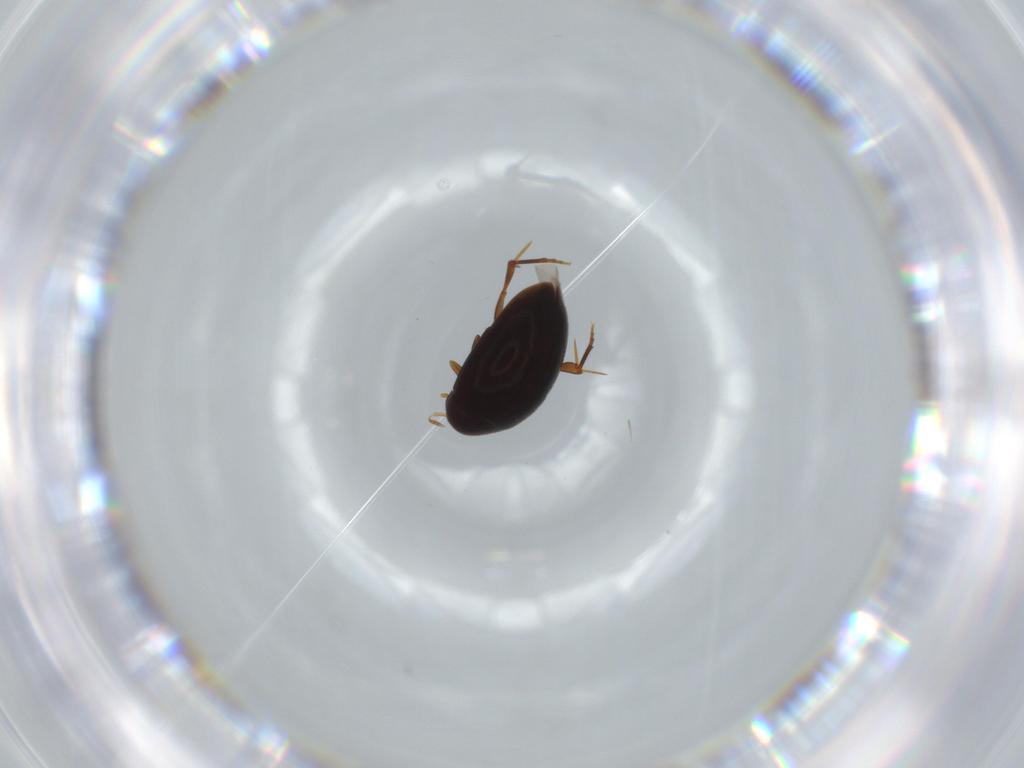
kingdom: Animalia
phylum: Arthropoda
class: Insecta
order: Coleoptera
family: Melandryidae
